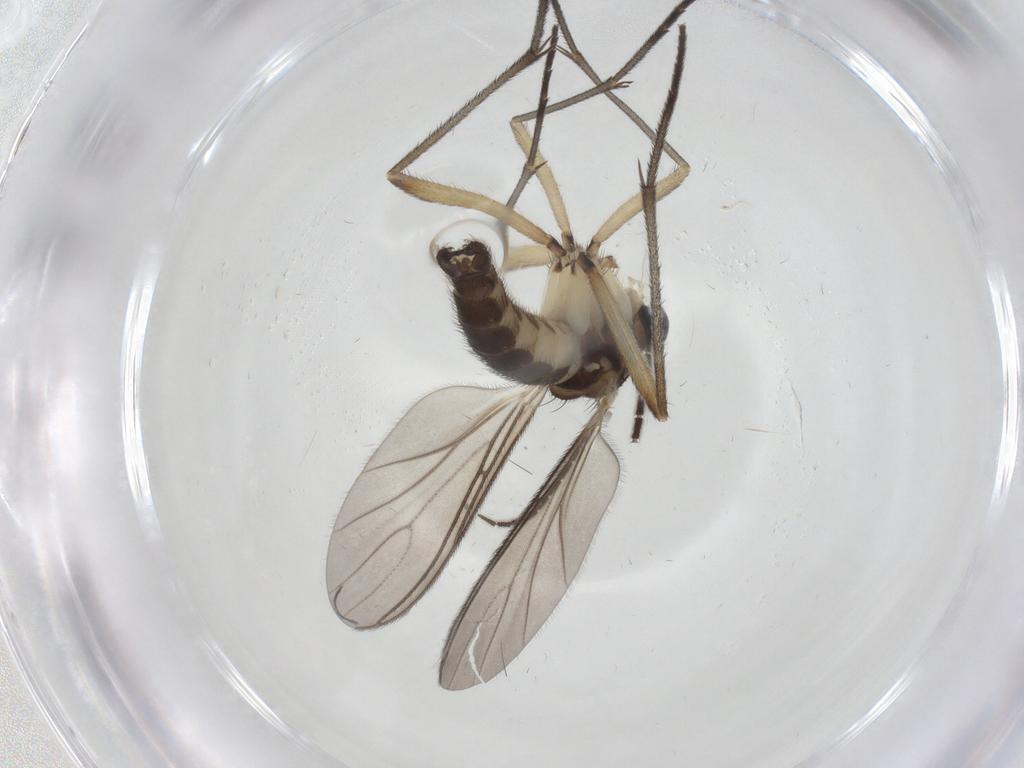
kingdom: Animalia
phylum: Arthropoda
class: Insecta
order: Diptera
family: Sciaridae
